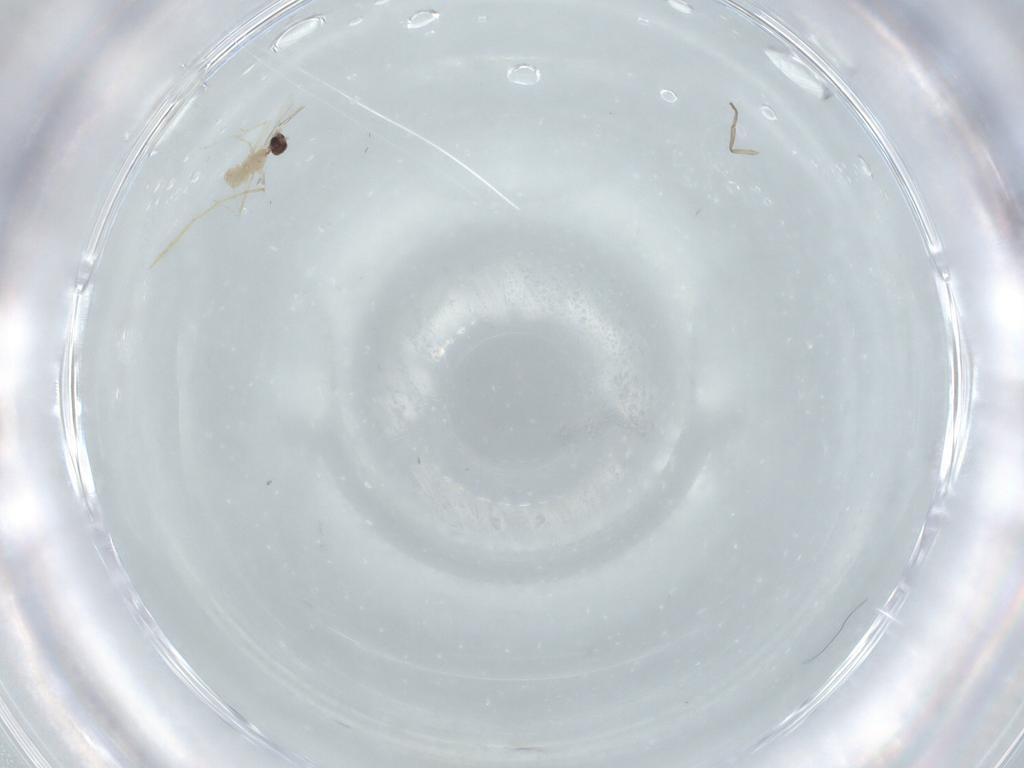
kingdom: Animalia
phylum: Arthropoda
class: Insecta
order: Diptera
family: Cecidomyiidae
